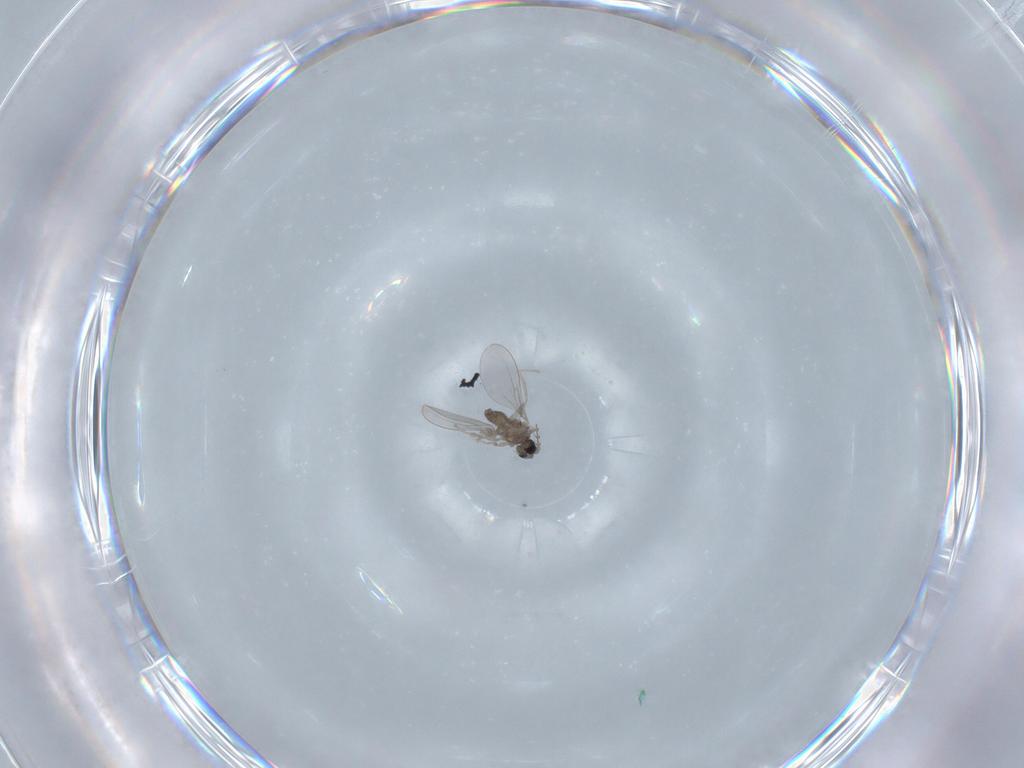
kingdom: Animalia
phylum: Arthropoda
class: Insecta
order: Diptera
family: Cecidomyiidae
